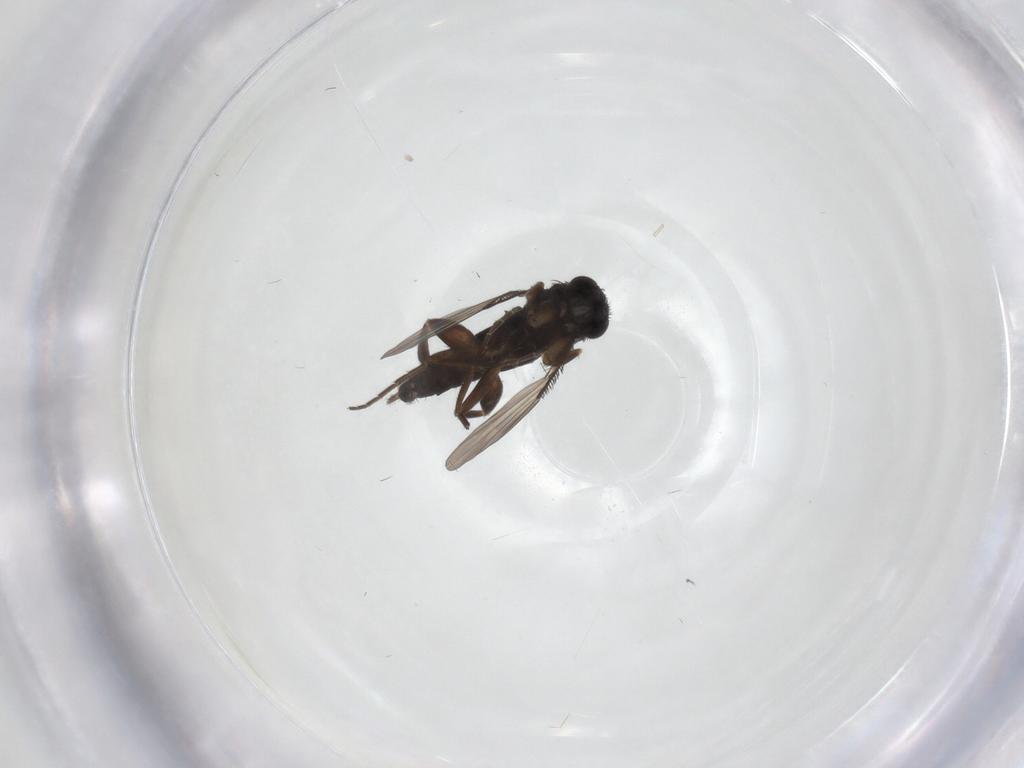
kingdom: Animalia
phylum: Arthropoda
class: Insecta
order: Diptera
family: Phoridae
